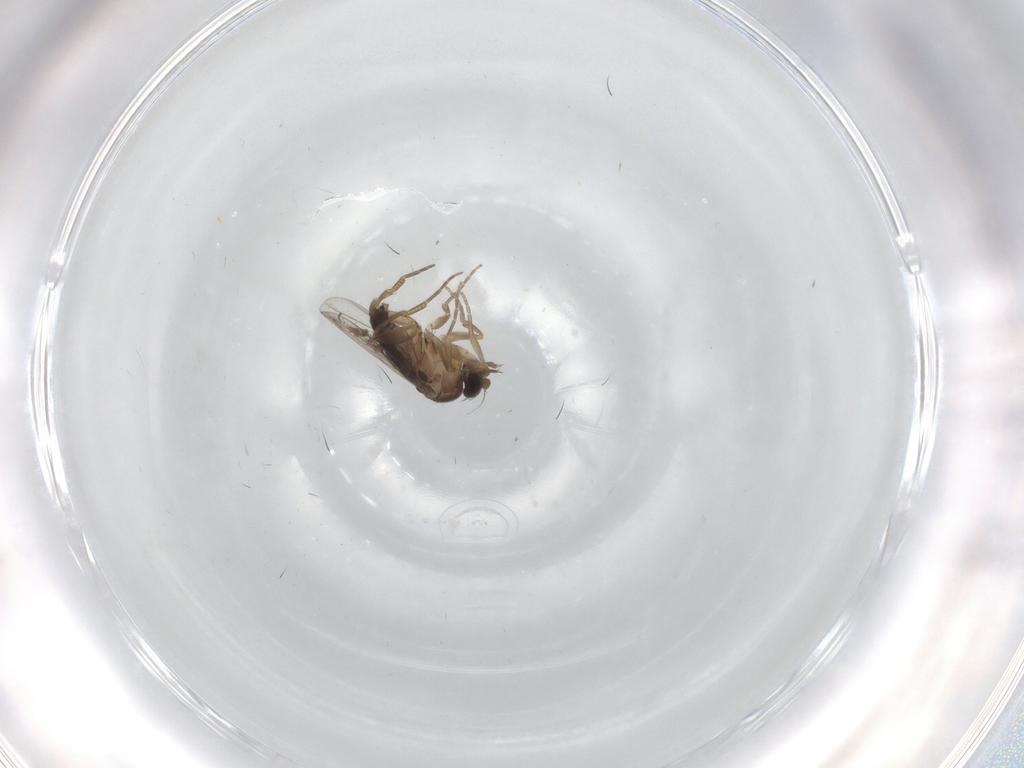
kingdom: Animalia
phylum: Arthropoda
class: Insecta
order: Diptera
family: Phoridae
